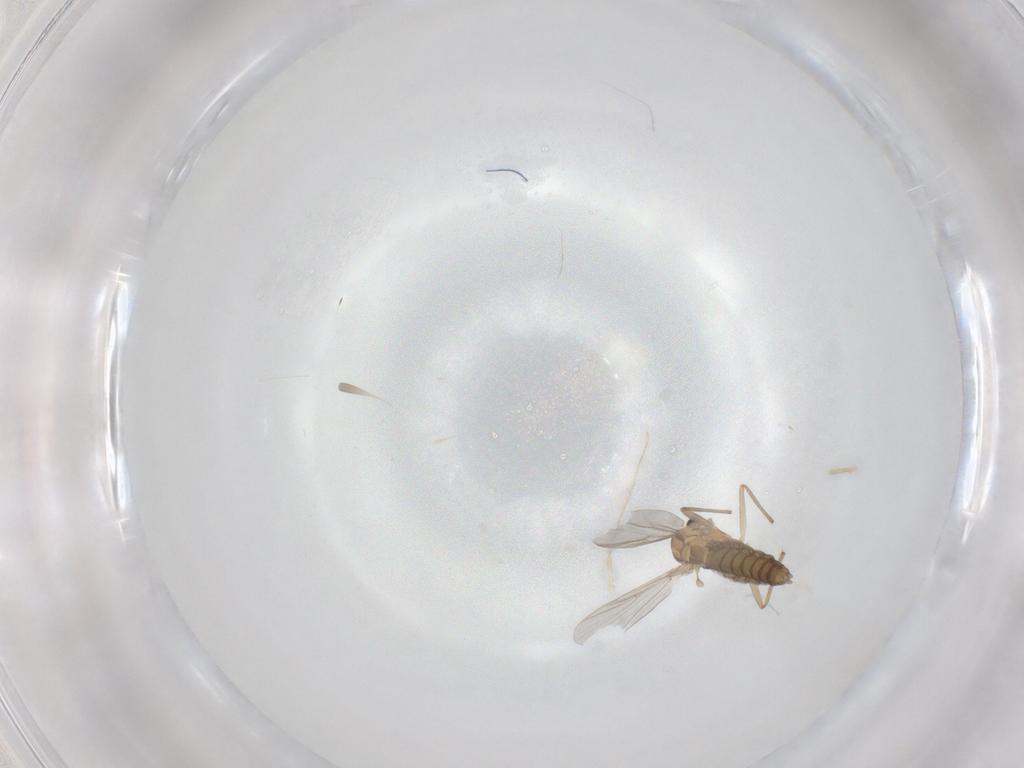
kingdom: Animalia
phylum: Arthropoda
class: Insecta
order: Diptera
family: Chironomidae
